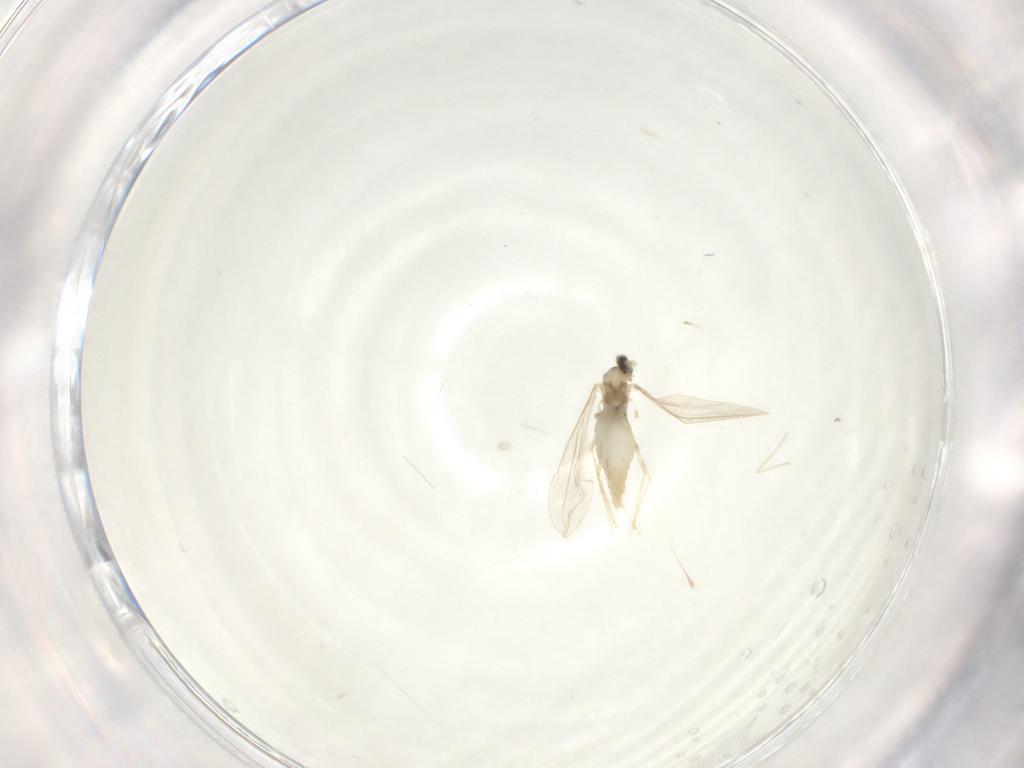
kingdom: Animalia
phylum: Arthropoda
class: Insecta
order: Diptera
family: Cecidomyiidae
